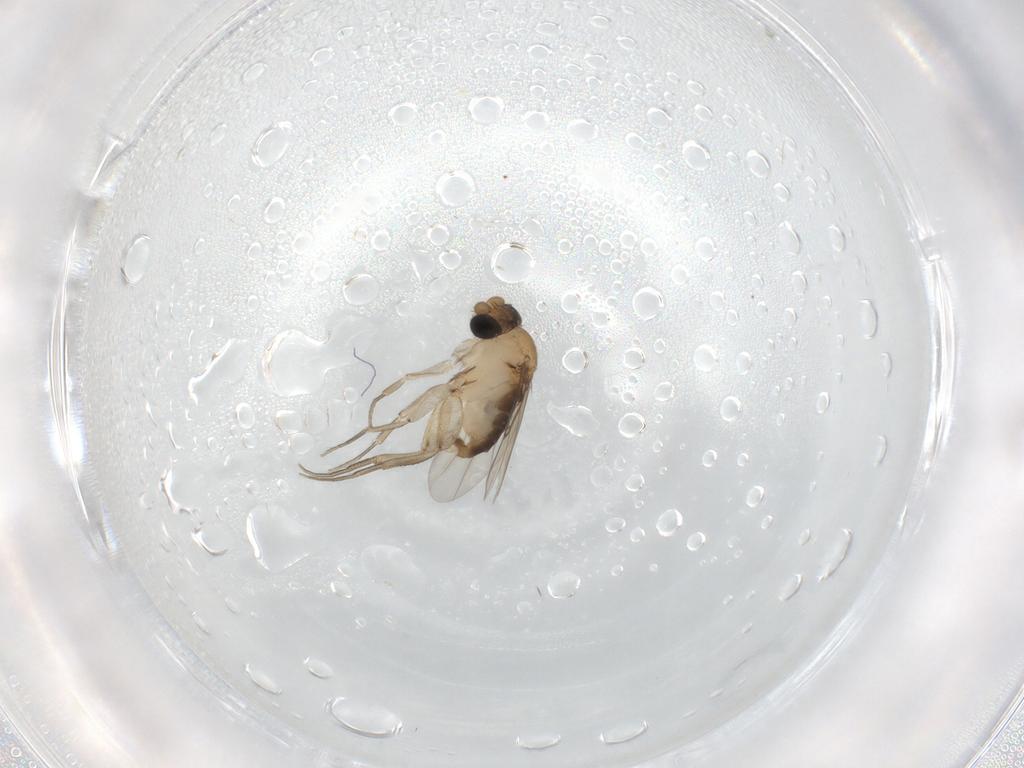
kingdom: Animalia
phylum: Arthropoda
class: Insecta
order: Diptera
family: Phoridae
